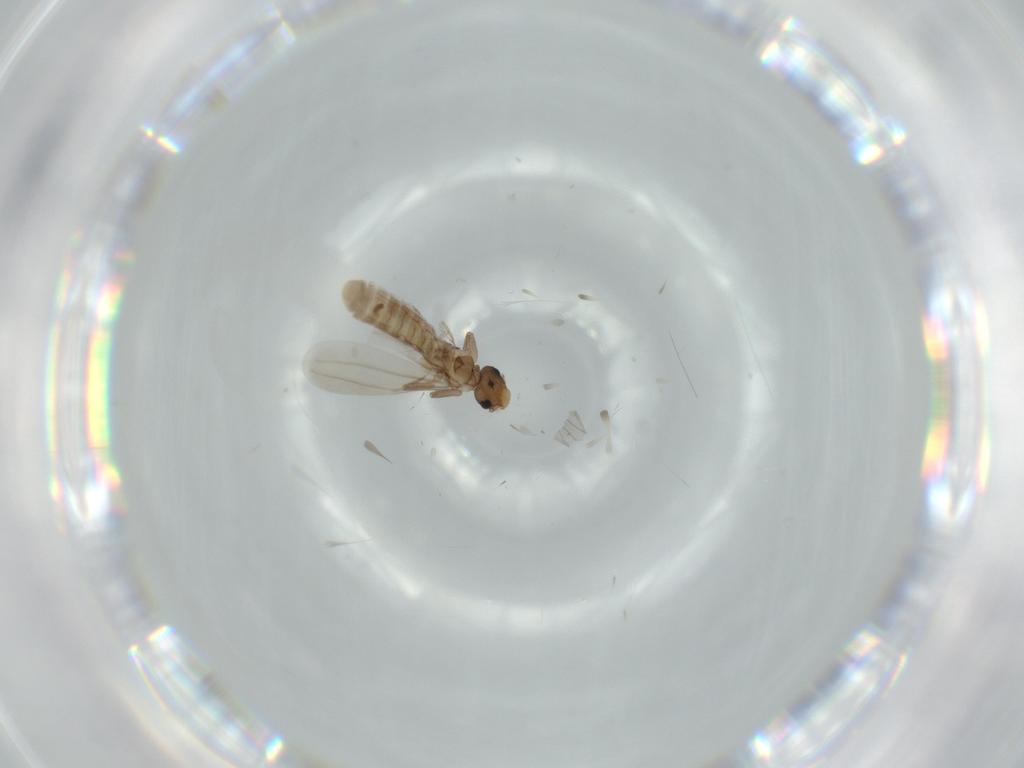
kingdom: Animalia
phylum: Arthropoda
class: Insecta
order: Psocodea
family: Lepidopsocidae
